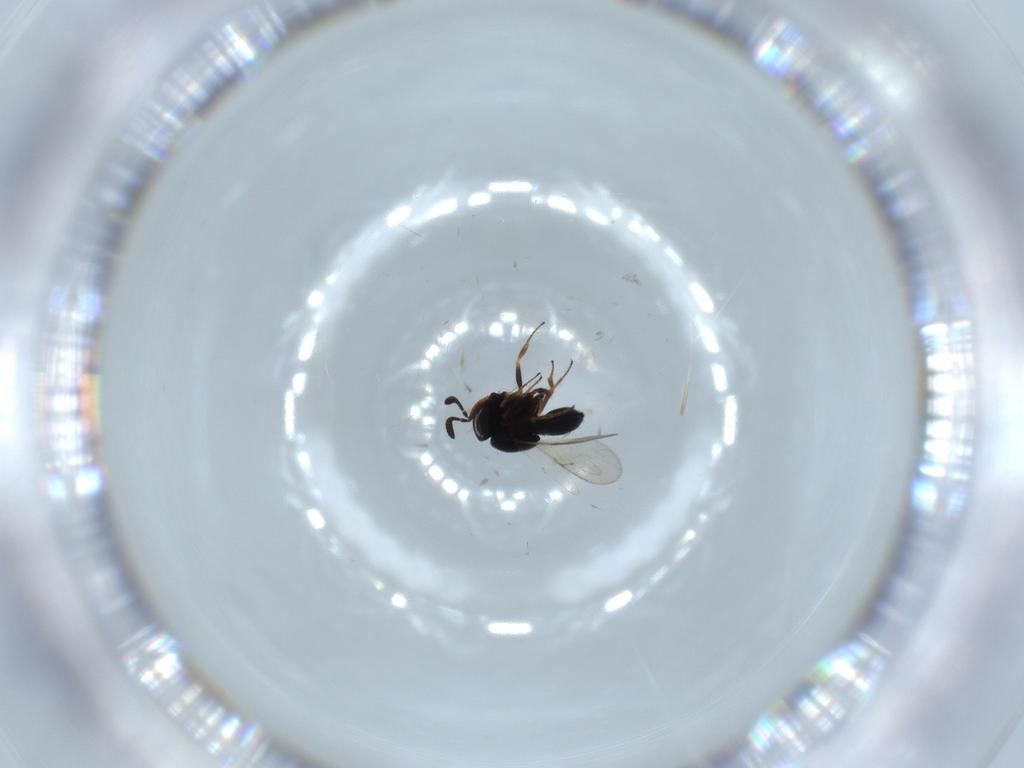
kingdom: Animalia
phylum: Arthropoda
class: Insecta
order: Hymenoptera
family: Scelionidae
